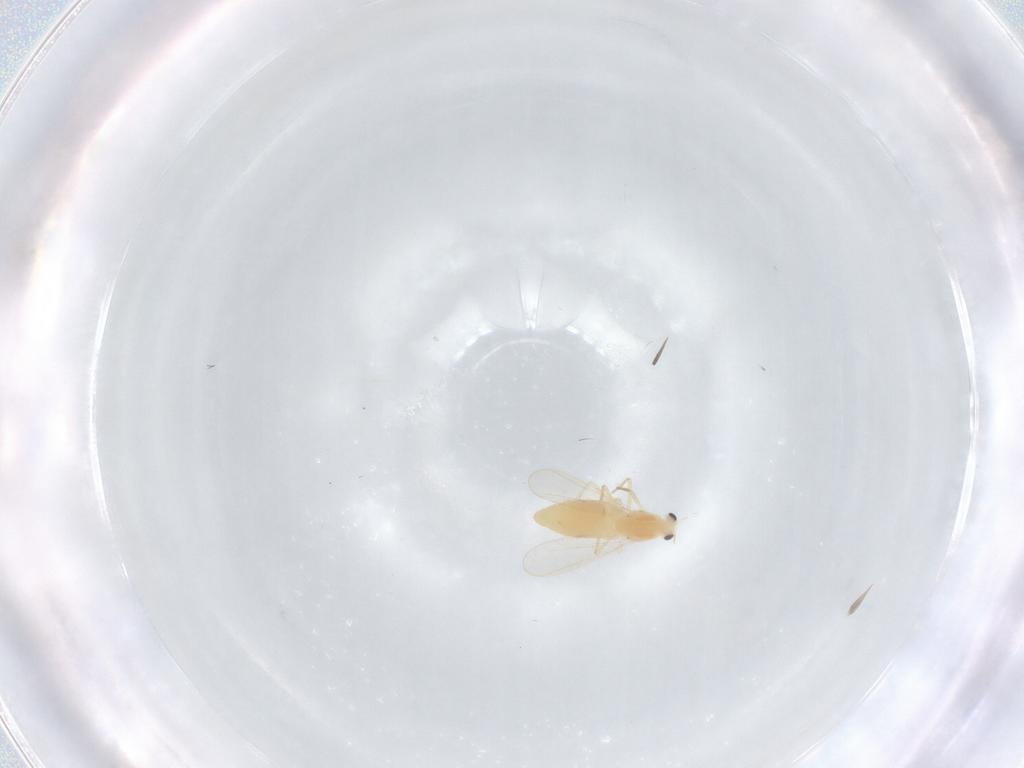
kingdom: Animalia
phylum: Arthropoda
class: Insecta
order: Diptera
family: Chironomidae
